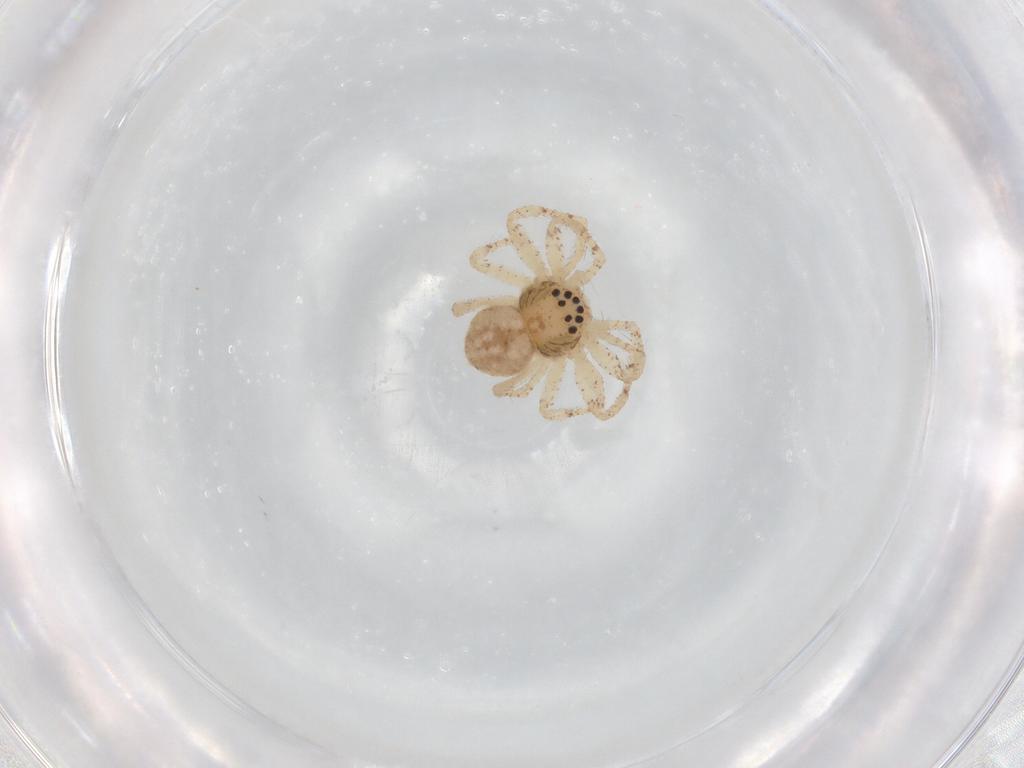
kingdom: Animalia
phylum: Arthropoda
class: Arachnida
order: Araneae
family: Philodromidae
